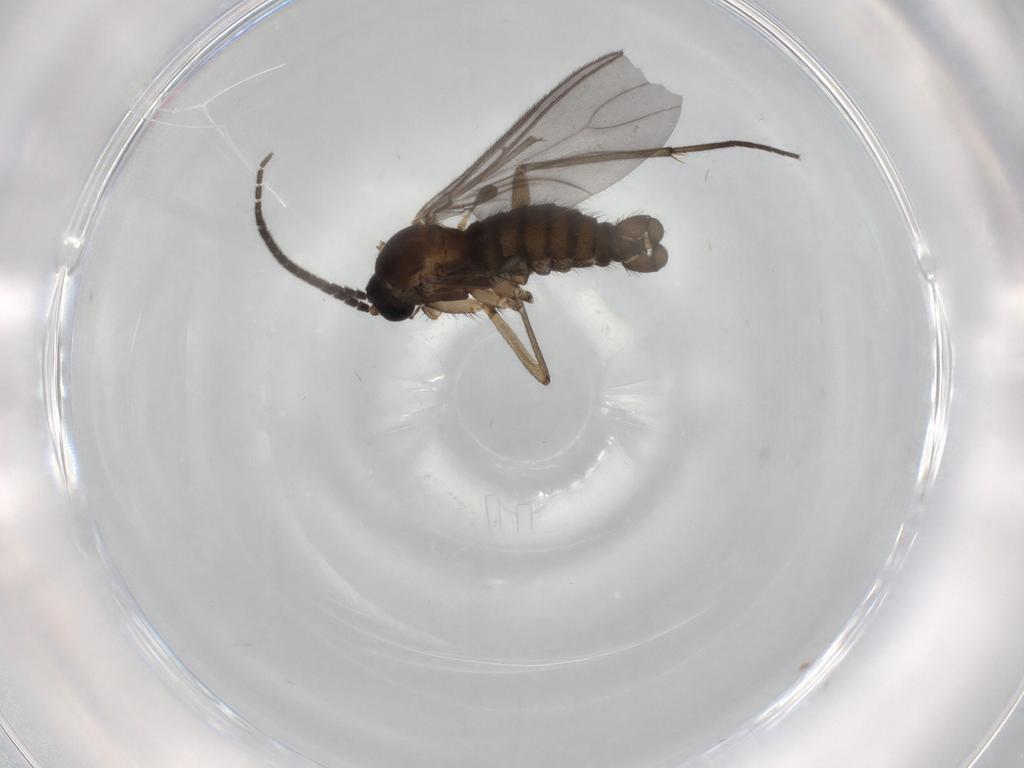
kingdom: Animalia
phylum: Arthropoda
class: Insecta
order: Diptera
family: Sciaridae
